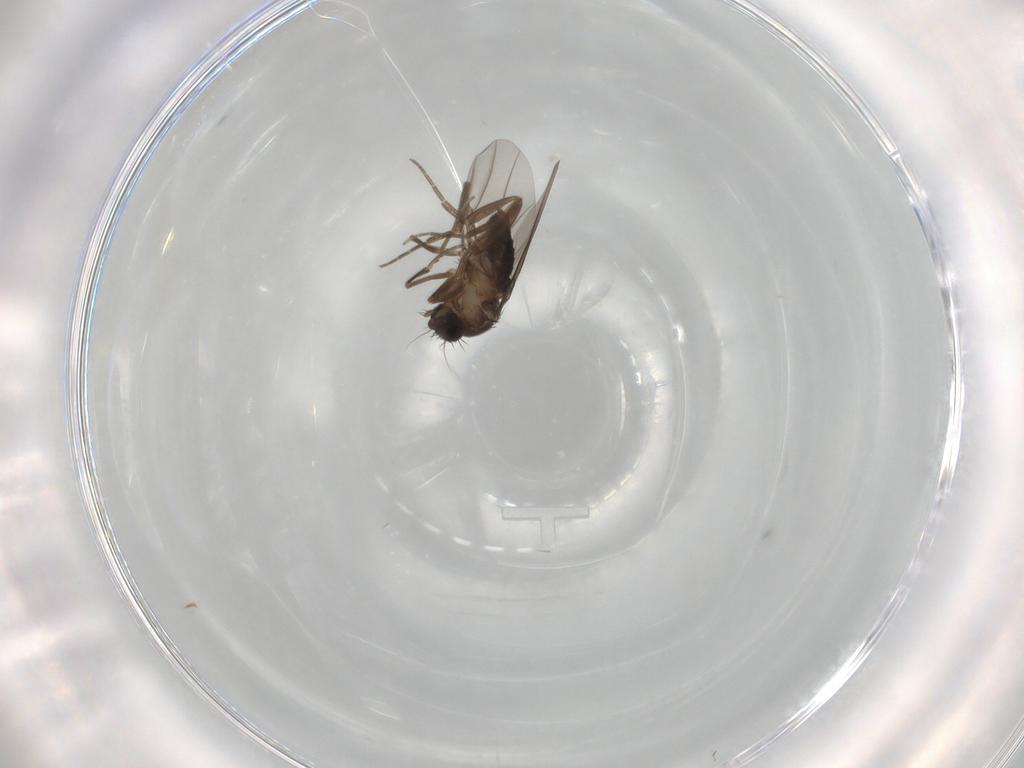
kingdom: Animalia
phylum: Arthropoda
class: Insecta
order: Diptera
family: Phoridae
